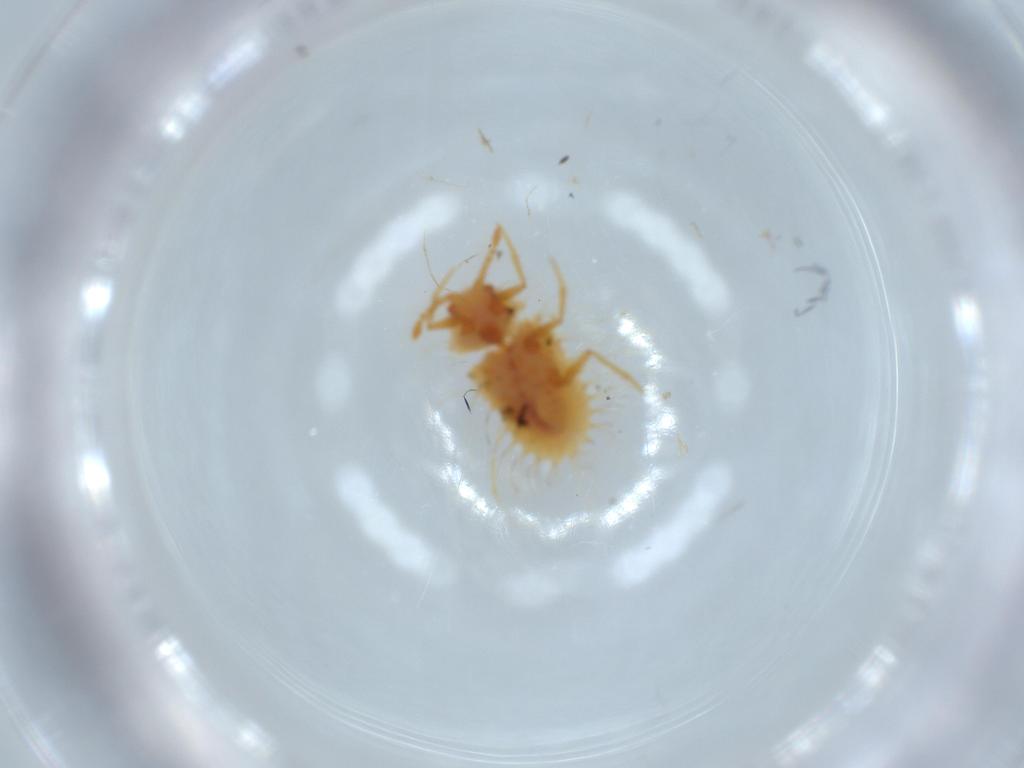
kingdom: Animalia
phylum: Arthropoda
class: Insecta
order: Hemiptera
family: Coccoidea_incertae_sedis
